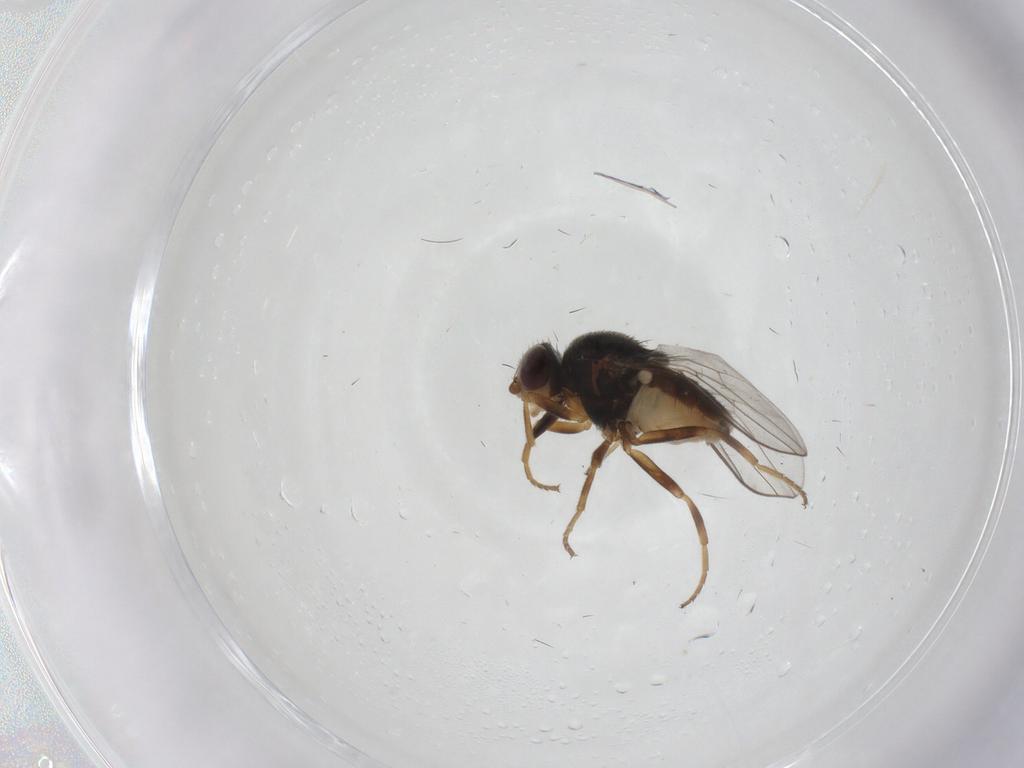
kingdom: Animalia
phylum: Arthropoda
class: Insecta
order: Diptera
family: Chloropidae
